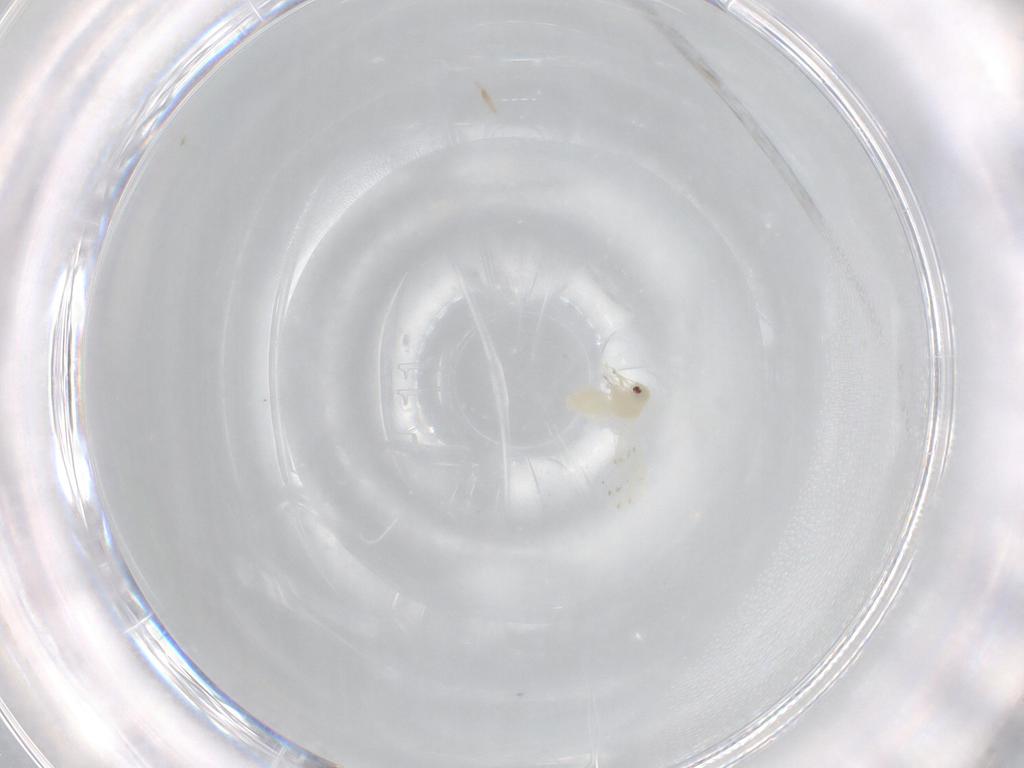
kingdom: Animalia
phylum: Arthropoda
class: Insecta
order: Hemiptera
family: Aleyrodidae
